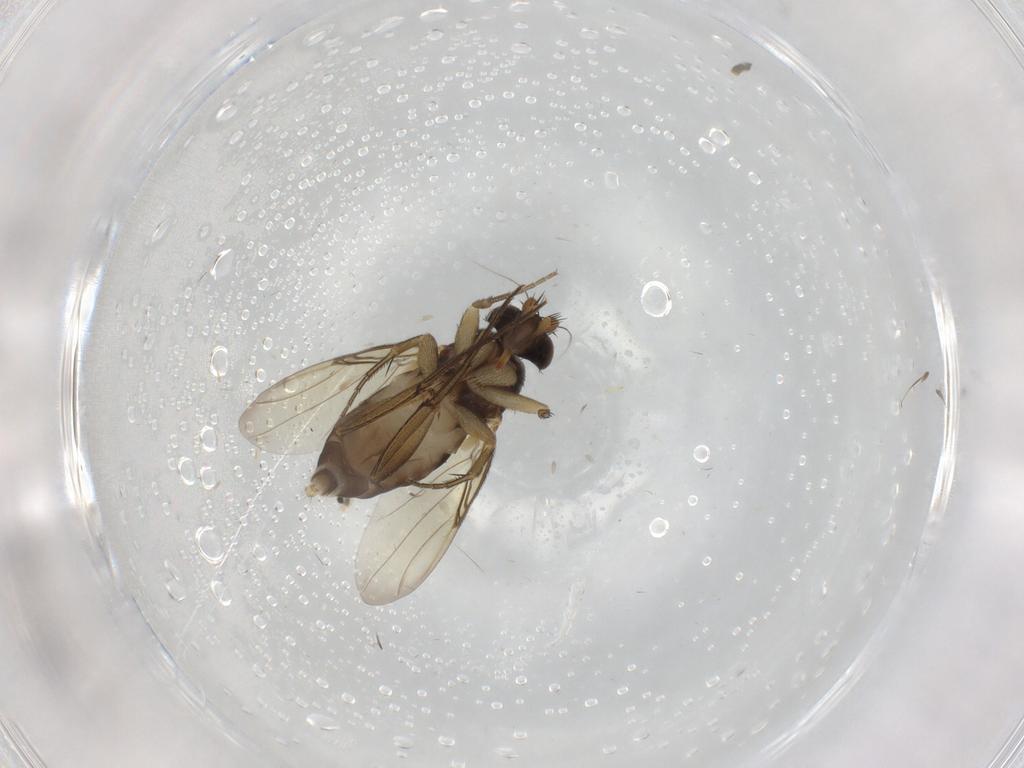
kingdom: Animalia
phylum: Arthropoda
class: Insecta
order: Diptera
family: Phoridae
